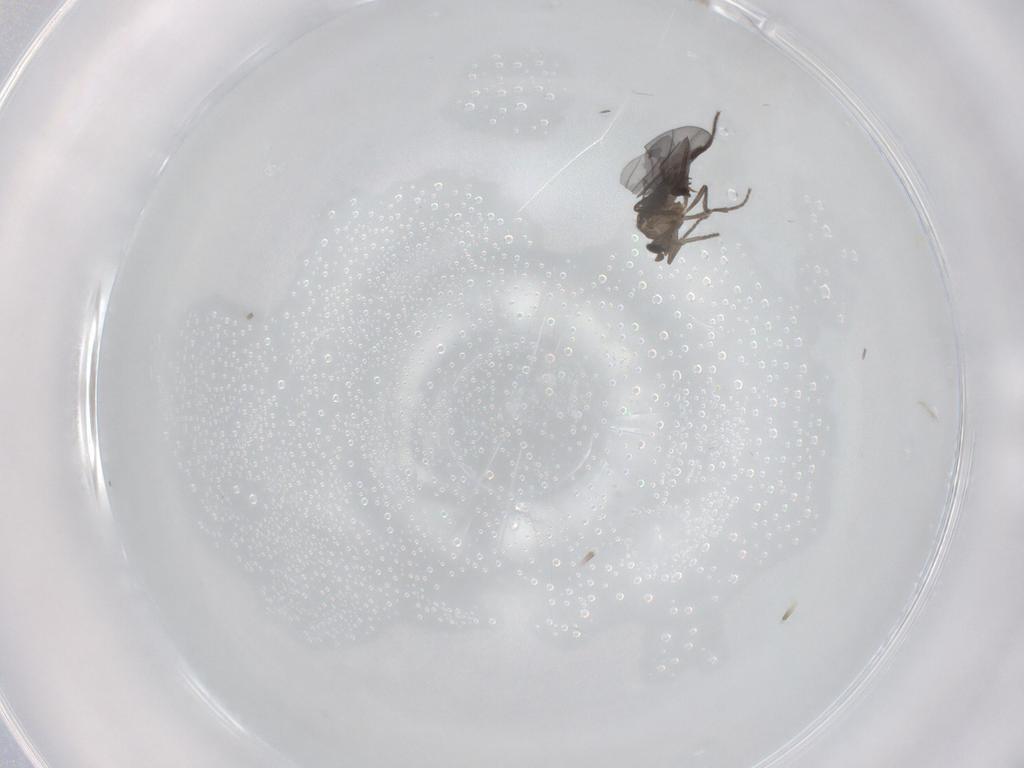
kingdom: Animalia
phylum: Arthropoda
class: Insecta
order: Diptera
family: Phoridae
